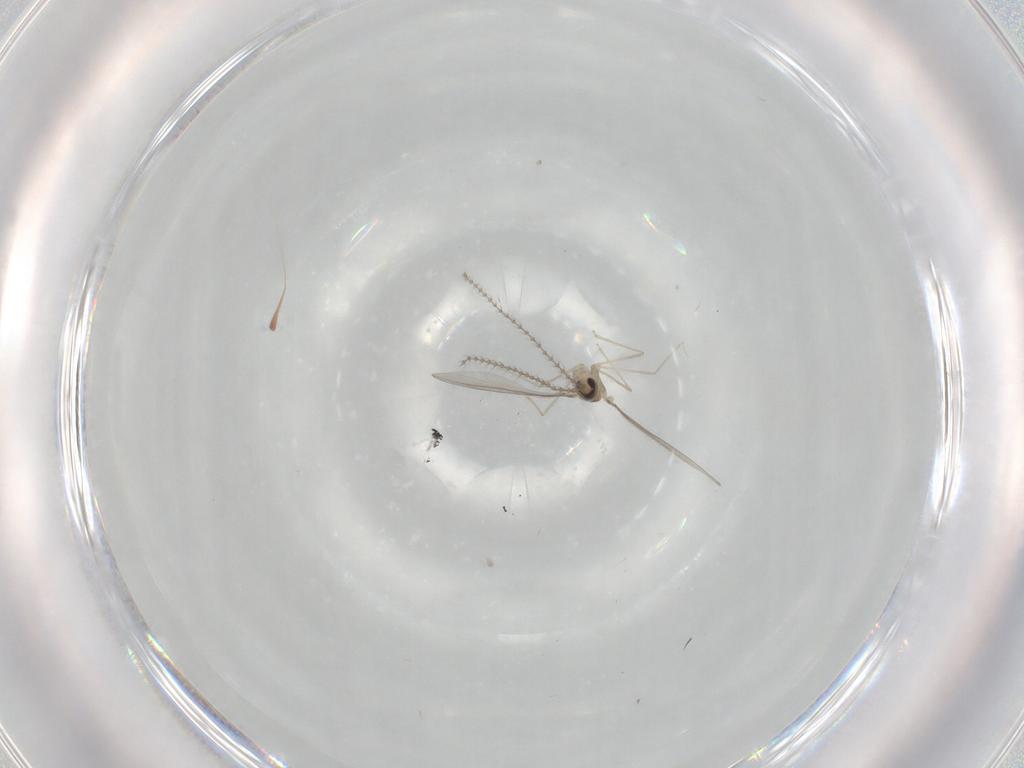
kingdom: Animalia
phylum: Arthropoda
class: Insecta
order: Diptera
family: Cecidomyiidae
